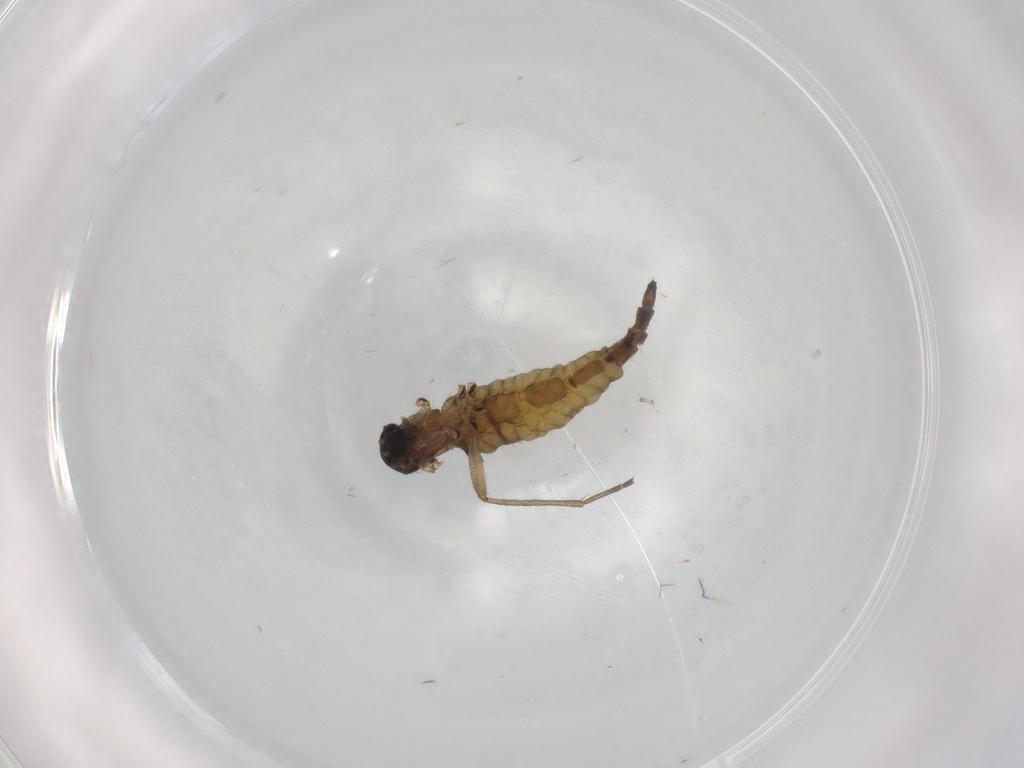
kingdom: Animalia
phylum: Arthropoda
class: Insecta
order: Diptera
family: Sciaridae
